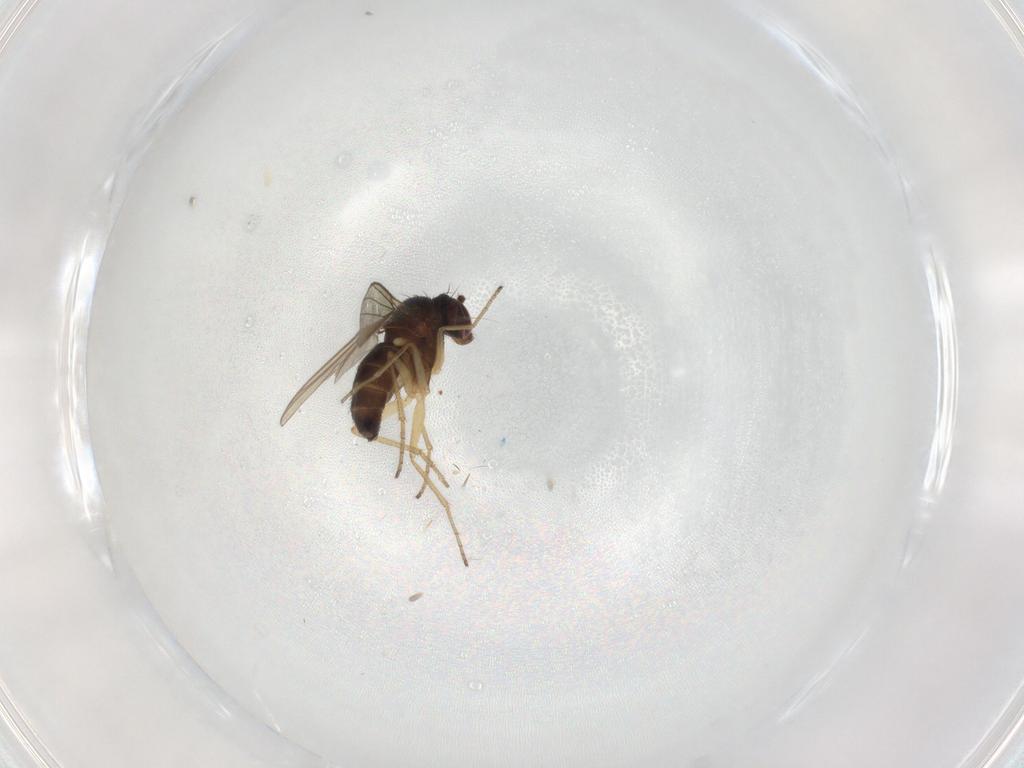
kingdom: Animalia
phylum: Arthropoda
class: Insecta
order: Diptera
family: Dolichopodidae
